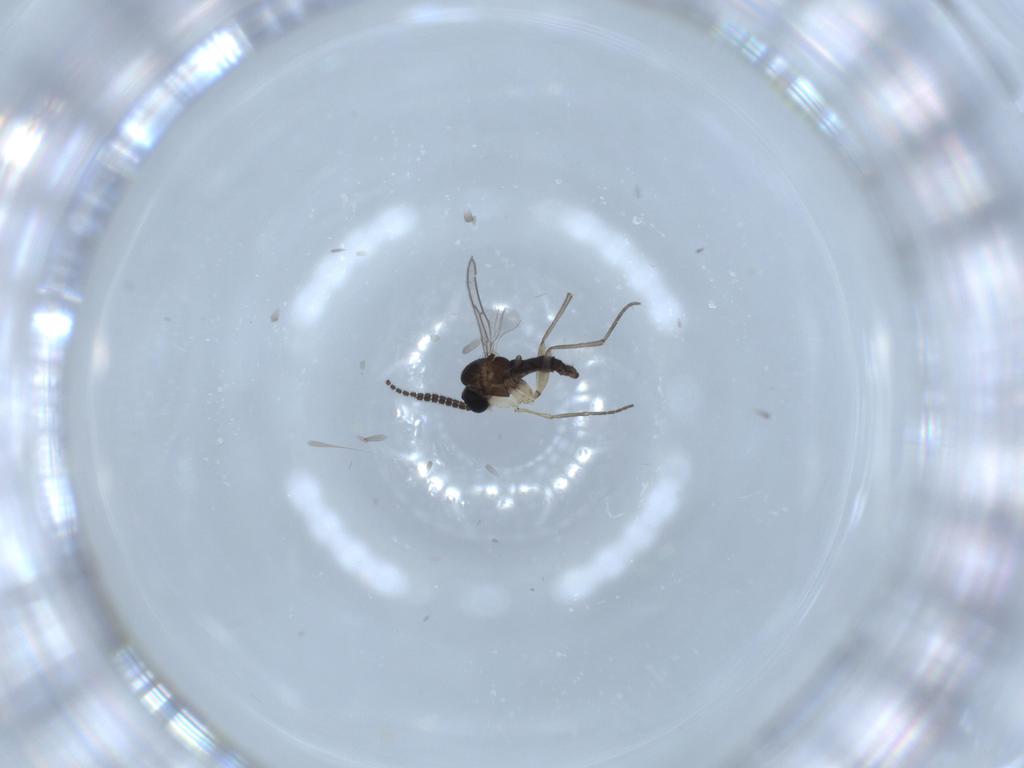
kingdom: Animalia
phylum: Arthropoda
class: Insecta
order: Diptera
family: Sciaridae
